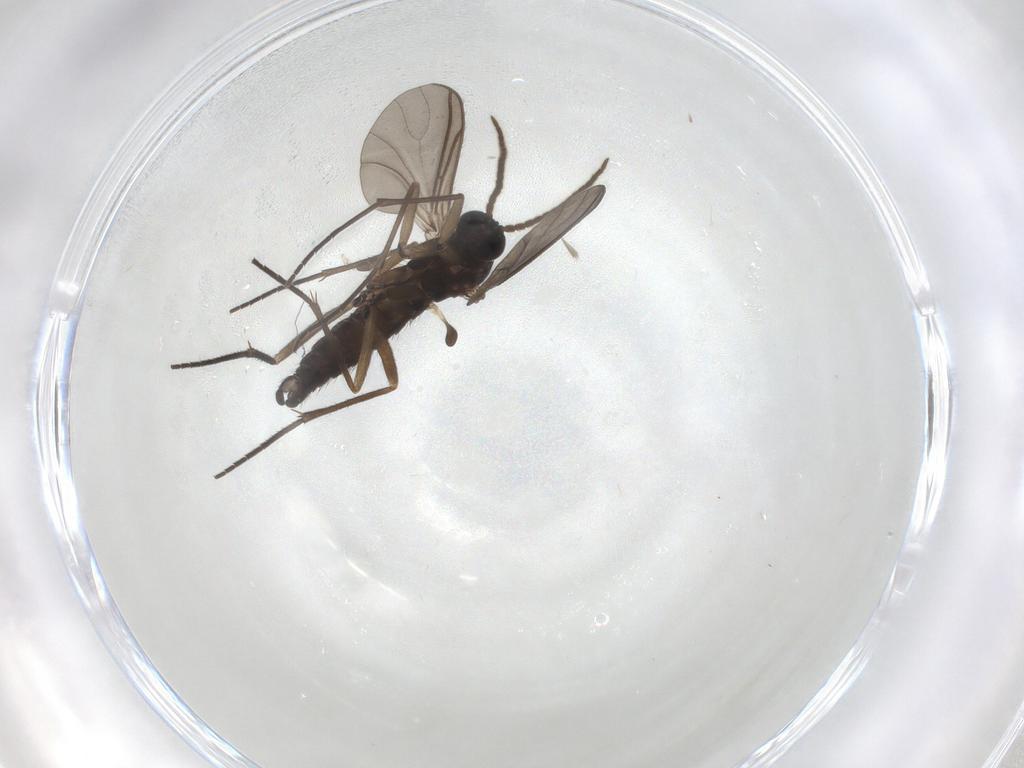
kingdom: Animalia
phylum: Arthropoda
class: Insecta
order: Diptera
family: Sciaridae
